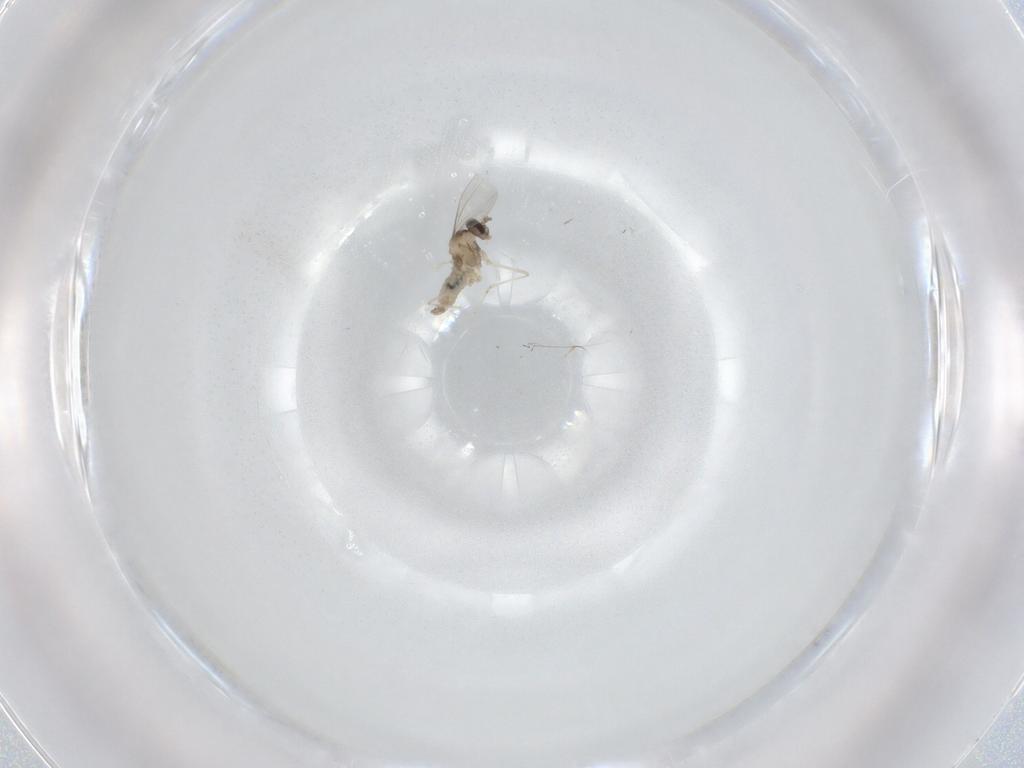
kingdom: Animalia
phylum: Arthropoda
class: Insecta
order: Diptera
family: Cecidomyiidae
